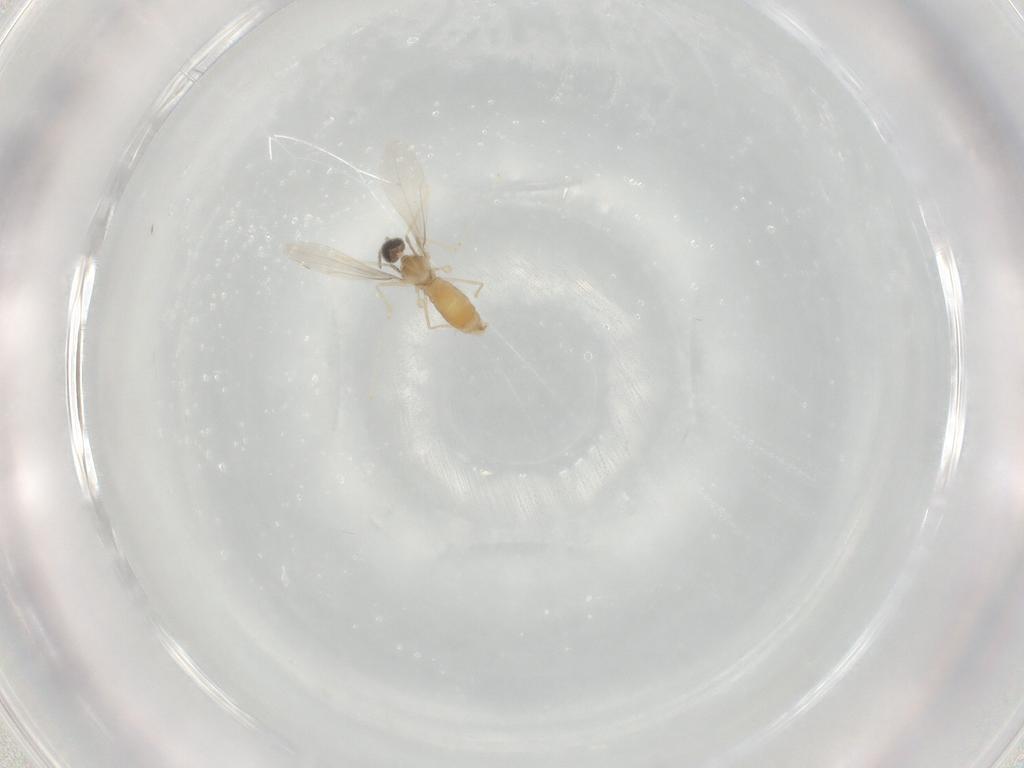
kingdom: Animalia
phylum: Arthropoda
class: Insecta
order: Diptera
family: Cecidomyiidae
